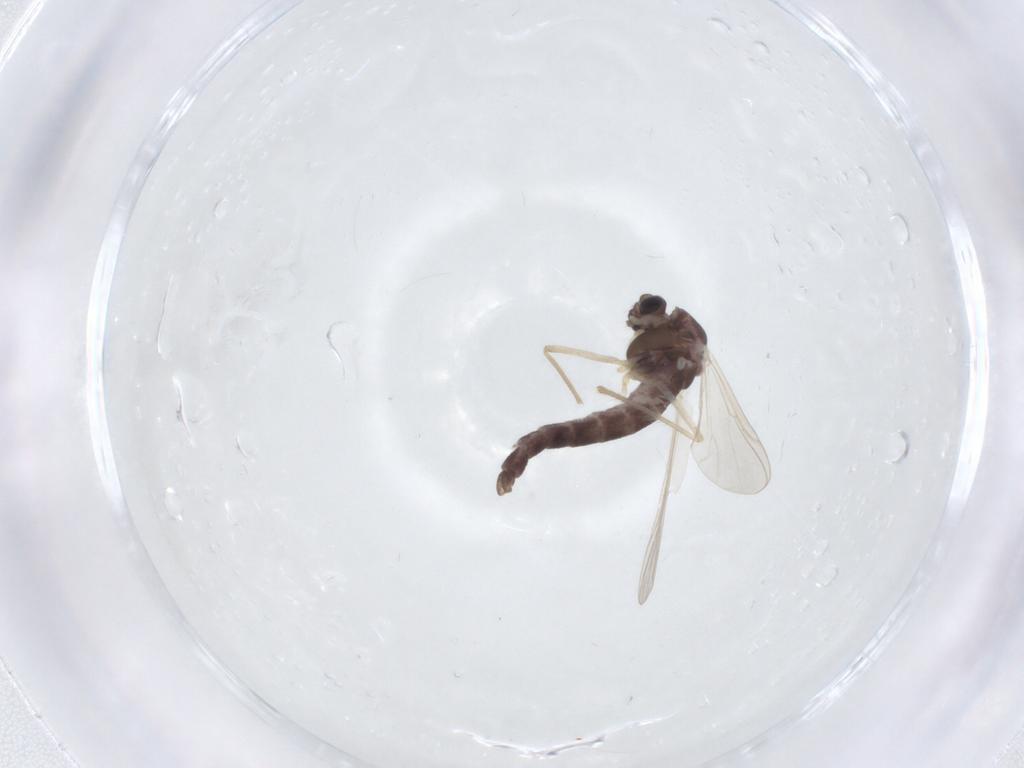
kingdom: Animalia
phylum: Arthropoda
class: Insecta
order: Diptera
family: Chironomidae
